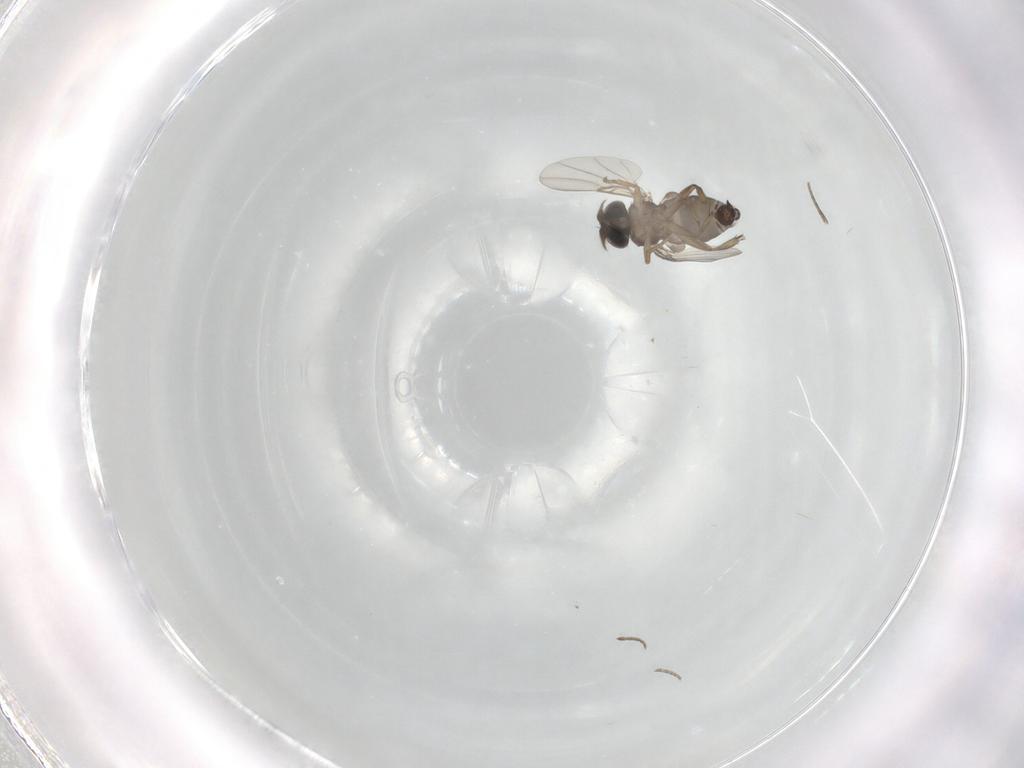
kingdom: Animalia
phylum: Arthropoda
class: Insecta
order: Diptera
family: Phoridae
